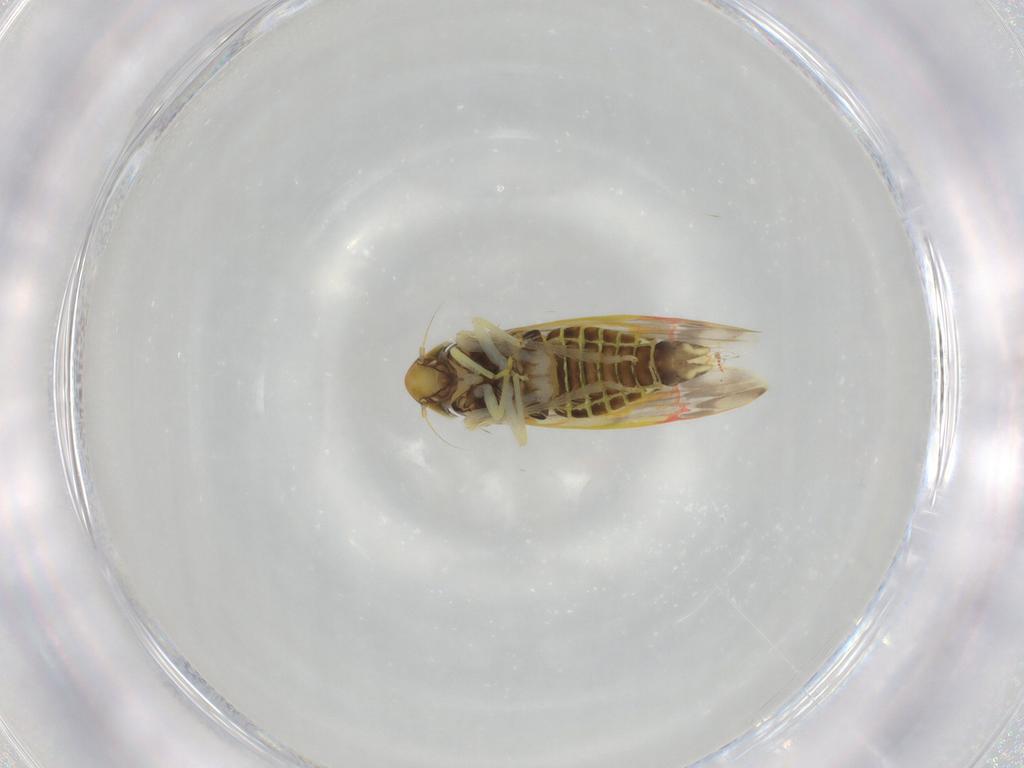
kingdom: Animalia
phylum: Arthropoda
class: Insecta
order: Hemiptera
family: Cicadellidae
